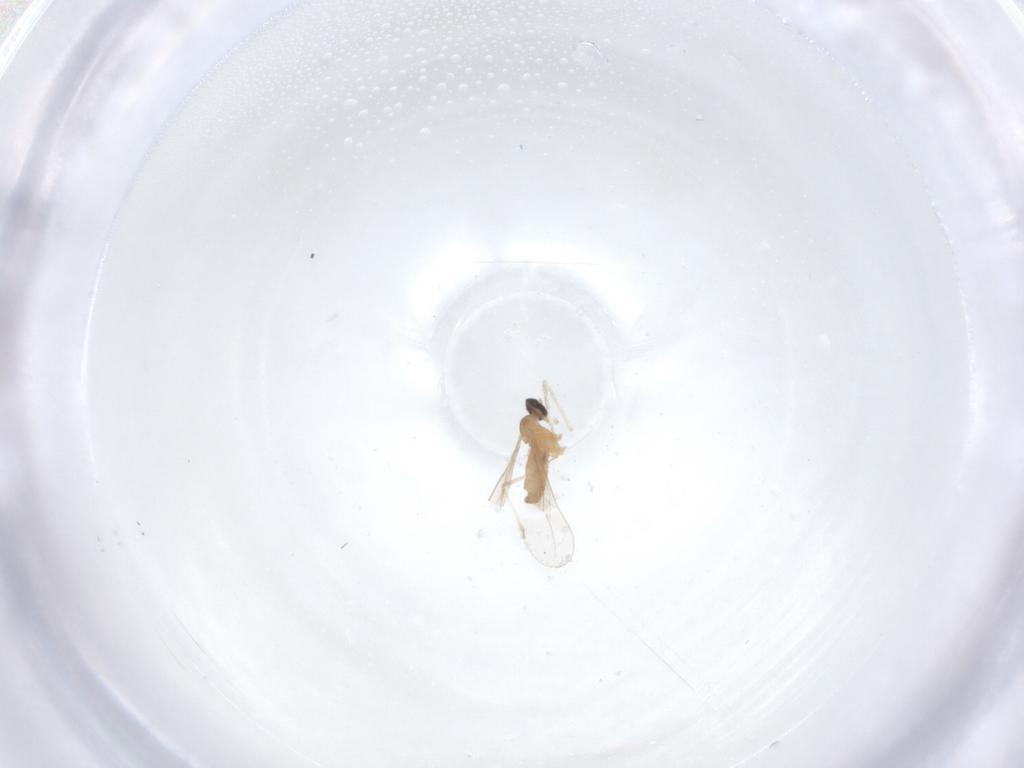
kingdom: Animalia
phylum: Arthropoda
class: Insecta
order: Diptera
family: Cecidomyiidae
